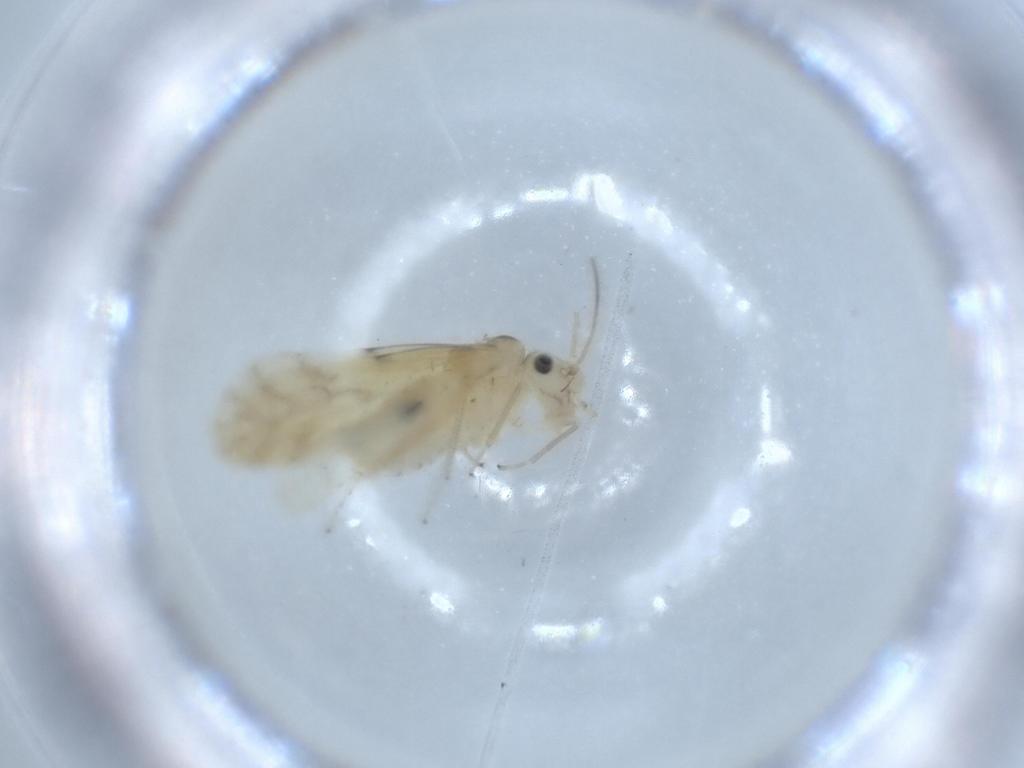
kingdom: Animalia
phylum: Arthropoda
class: Insecta
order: Psocodea
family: Caeciliusidae
